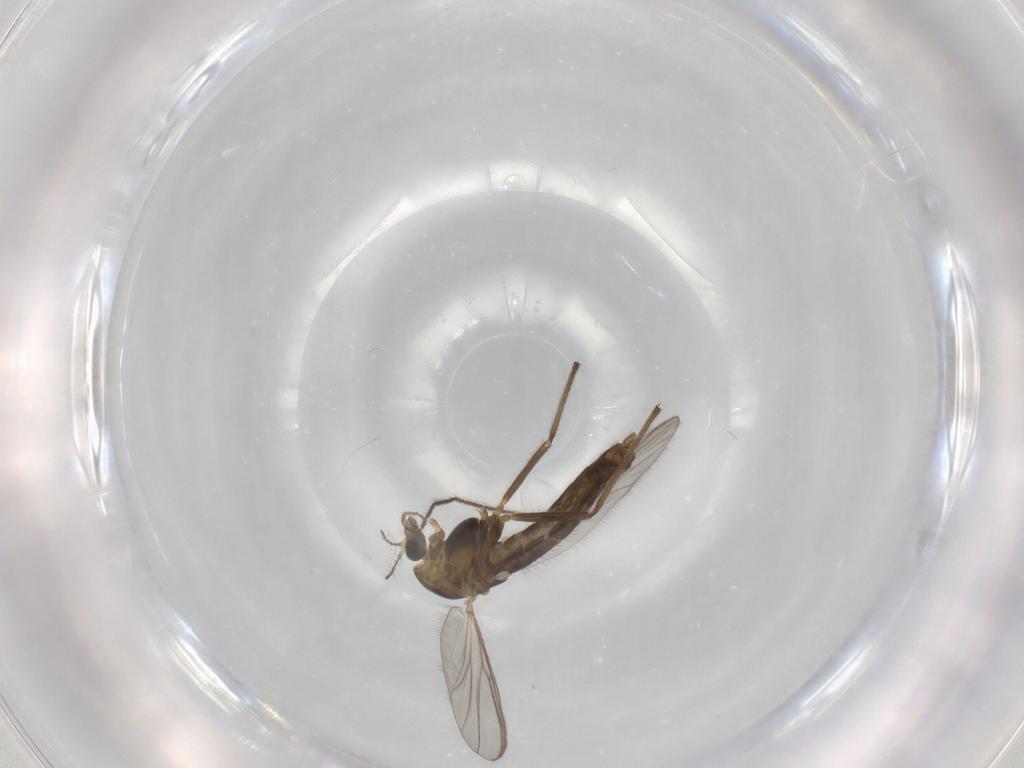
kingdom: Animalia
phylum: Arthropoda
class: Insecta
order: Diptera
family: Chironomidae
